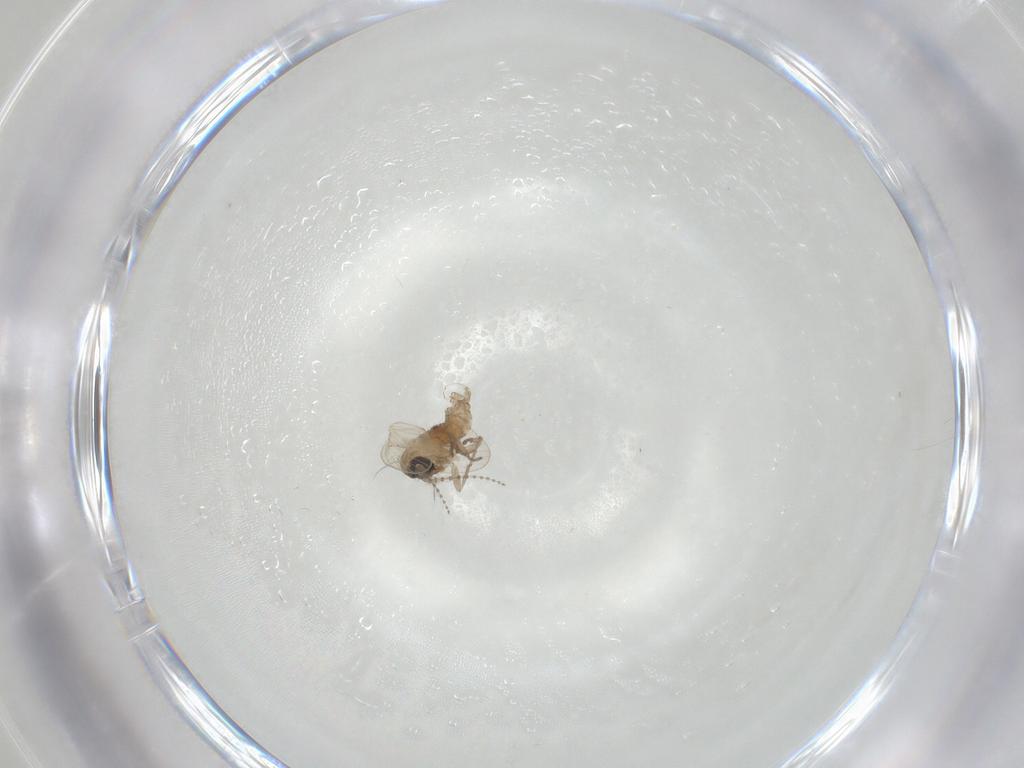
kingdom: Animalia
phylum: Arthropoda
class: Insecta
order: Diptera
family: Psychodidae
